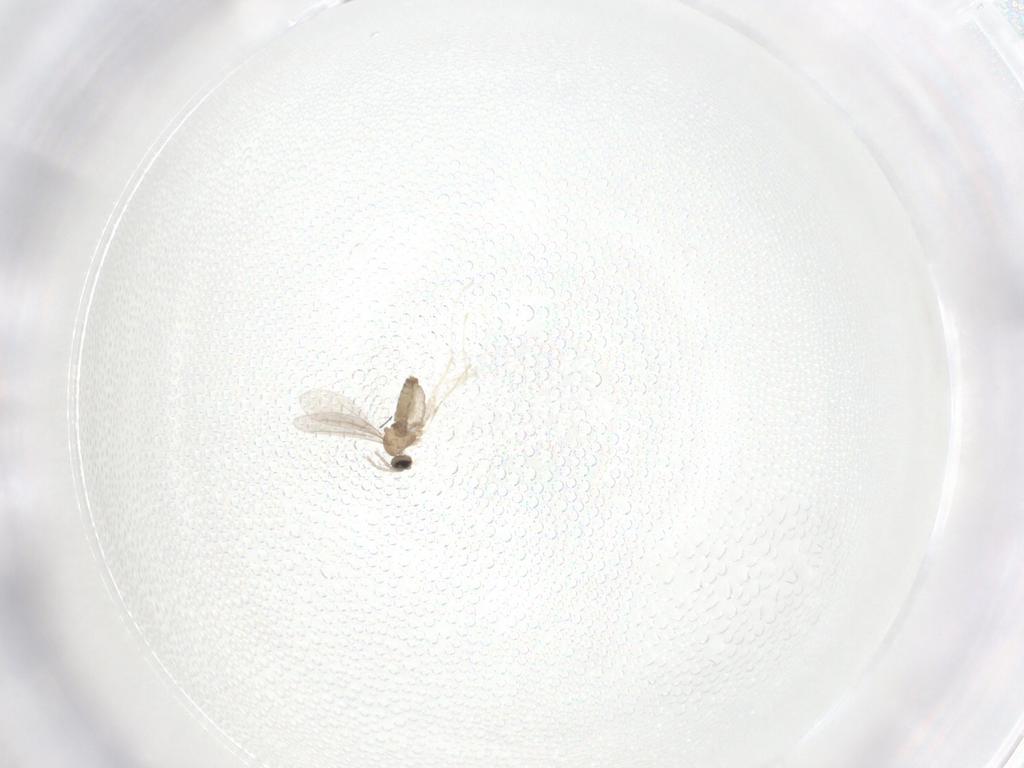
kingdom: Animalia
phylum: Arthropoda
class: Insecta
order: Diptera
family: Cecidomyiidae
